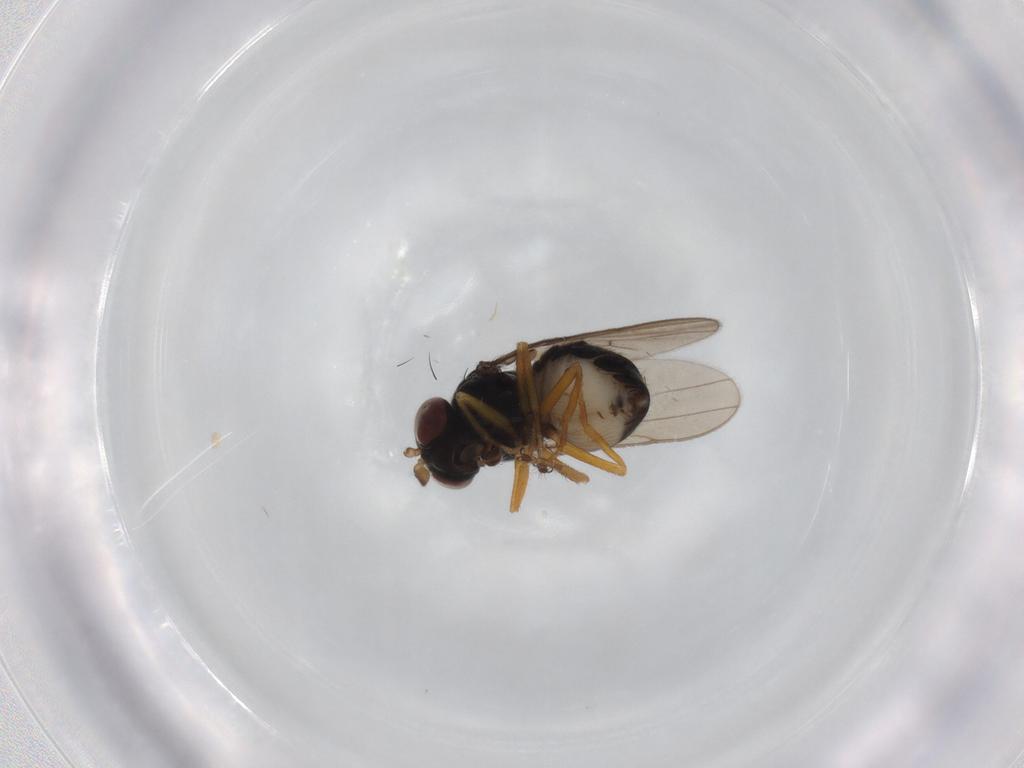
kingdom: Animalia
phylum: Arthropoda
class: Insecta
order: Diptera
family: Ephydridae
